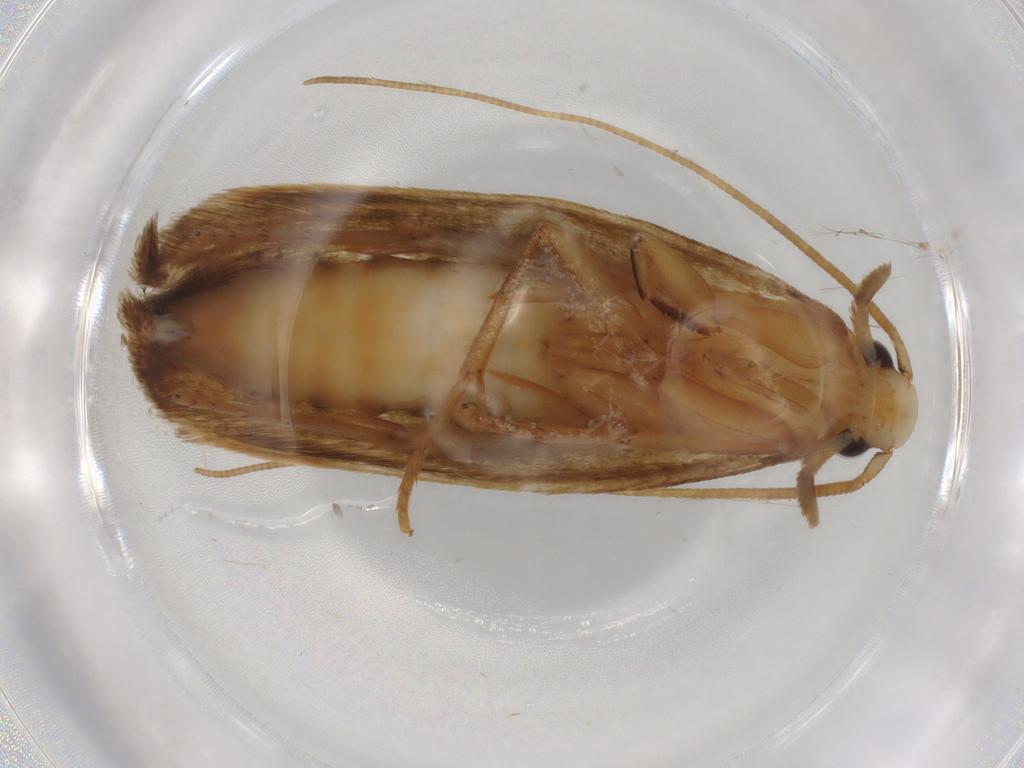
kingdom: Animalia
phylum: Arthropoda
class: Insecta
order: Lepidoptera
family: Tineidae
